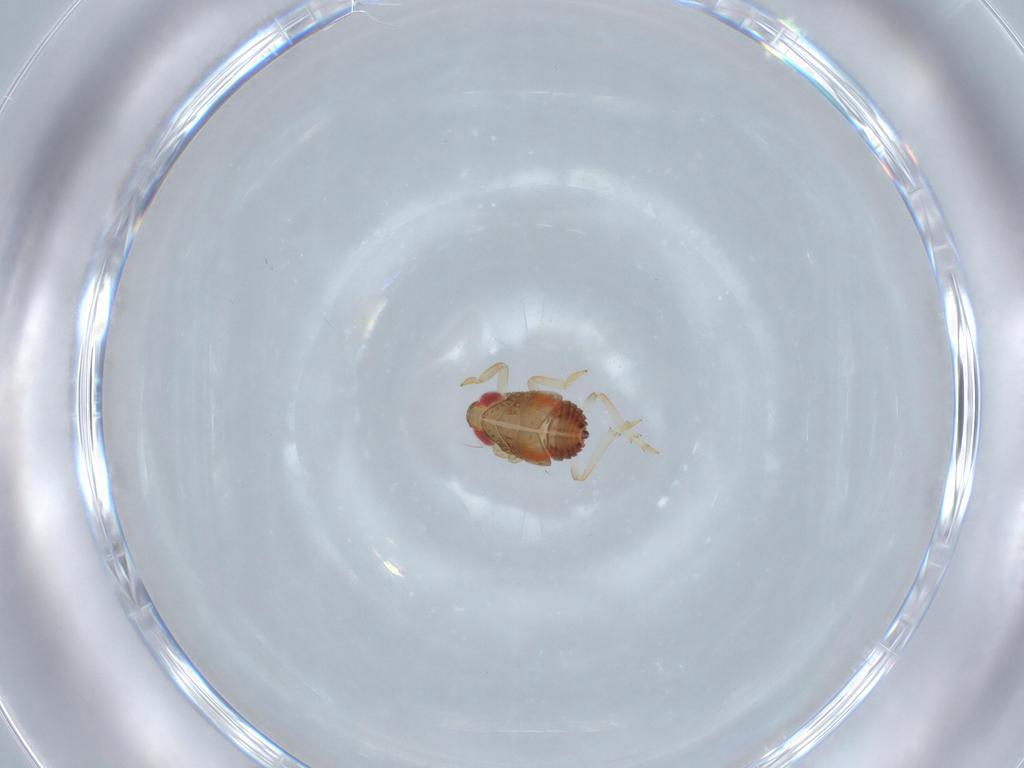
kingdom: Animalia
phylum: Arthropoda
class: Insecta
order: Hemiptera
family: Issidae
